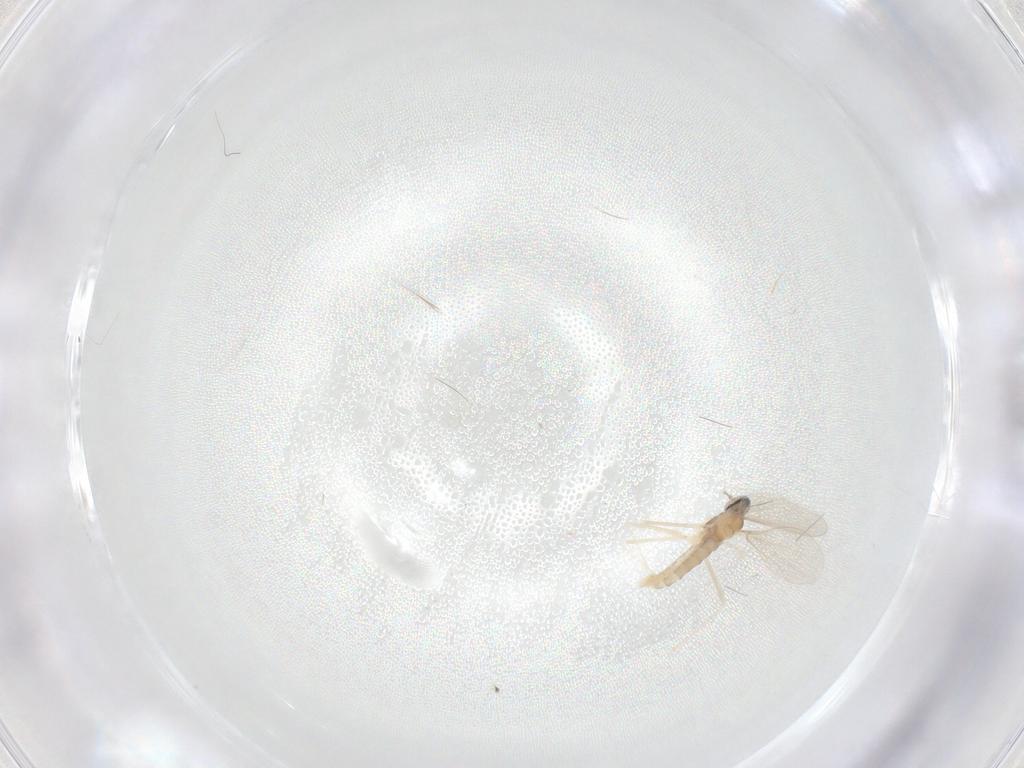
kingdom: Animalia
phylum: Arthropoda
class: Insecta
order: Diptera
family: Cecidomyiidae
